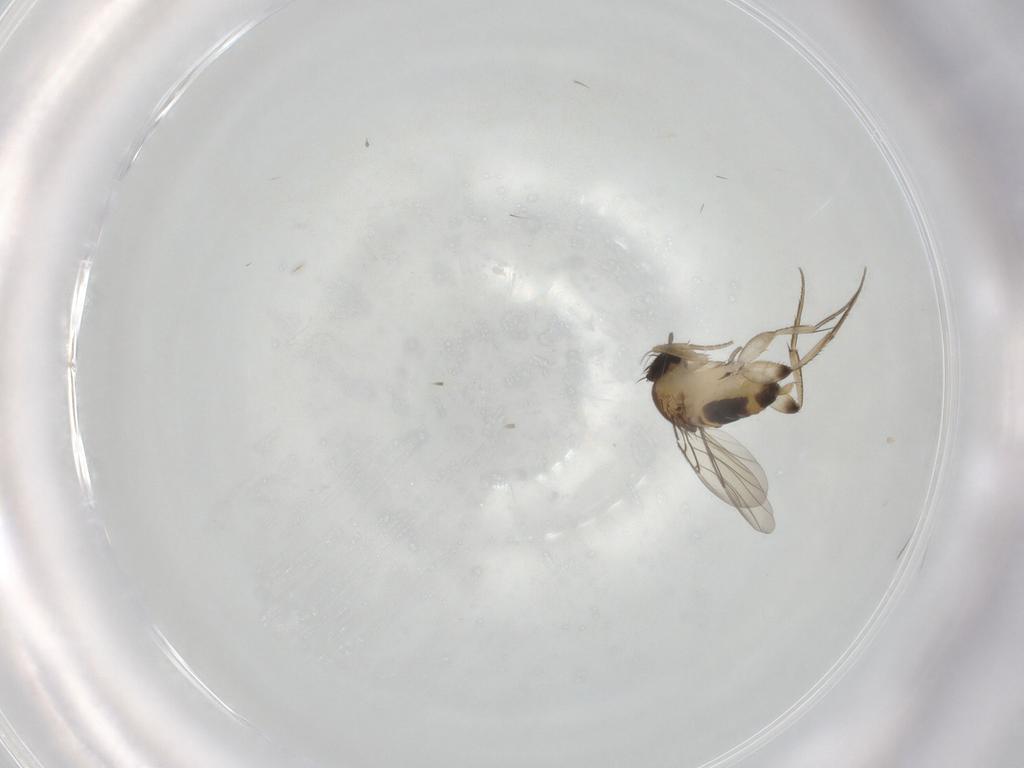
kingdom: Animalia
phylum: Arthropoda
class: Insecta
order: Diptera
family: Phoridae
